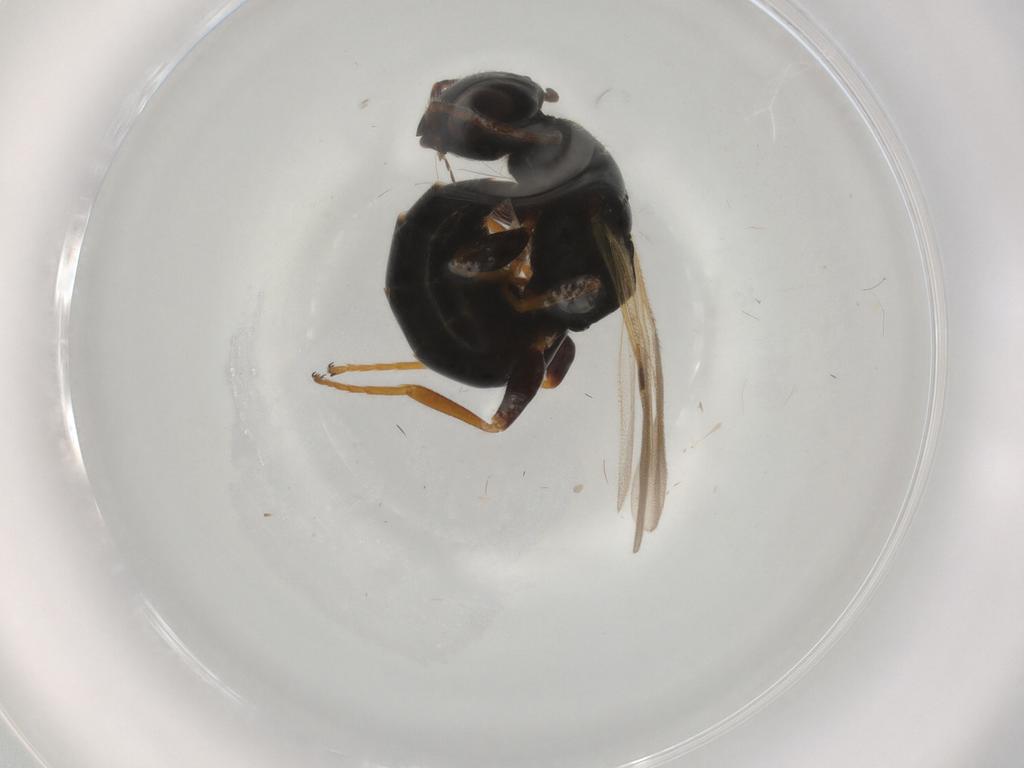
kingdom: Animalia
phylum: Arthropoda
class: Insecta
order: Hymenoptera
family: Bethylidae
